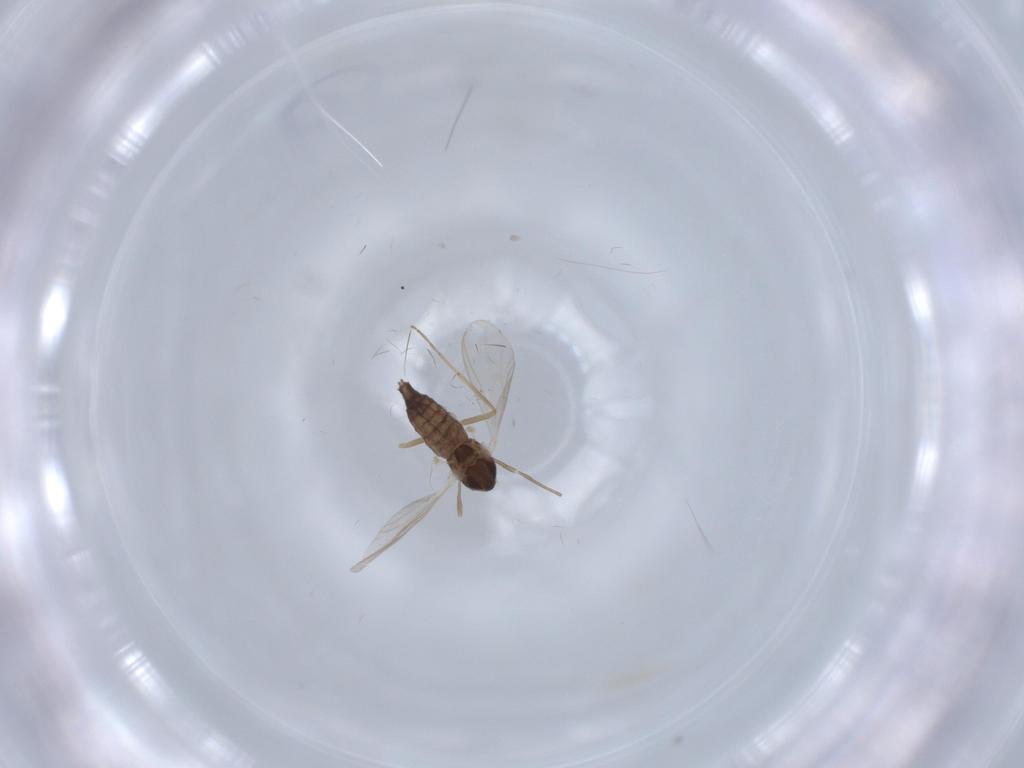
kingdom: Animalia
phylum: Arthropoda
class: Insecta
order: Diptera
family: Chironomidae
